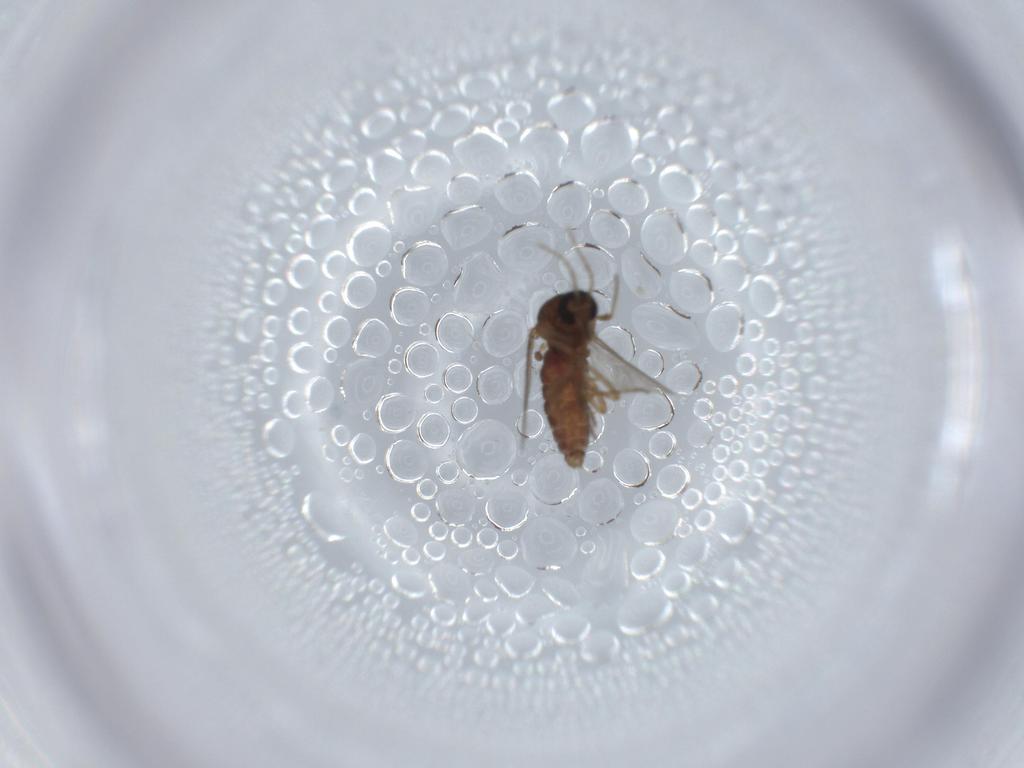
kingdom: Animalia
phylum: Arthropoda
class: Insecta
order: Diptera
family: Ceratopogonidae
